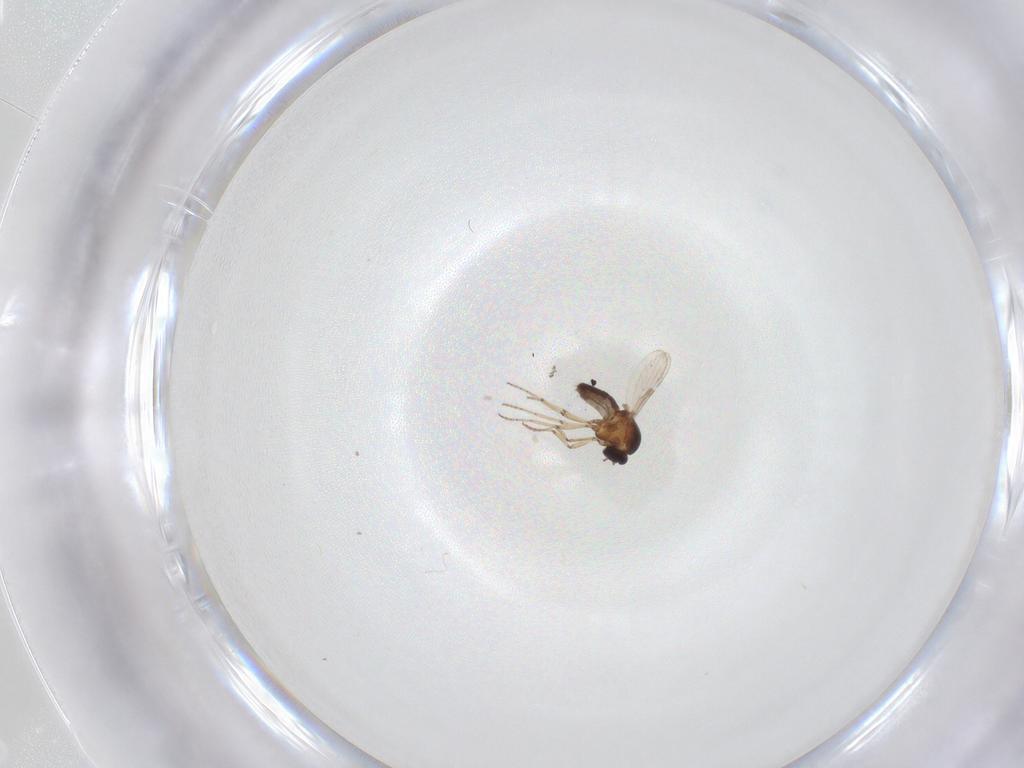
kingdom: Animalia
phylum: Arthropoda
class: Insecta
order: Diptera
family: Ceratopogonidae
